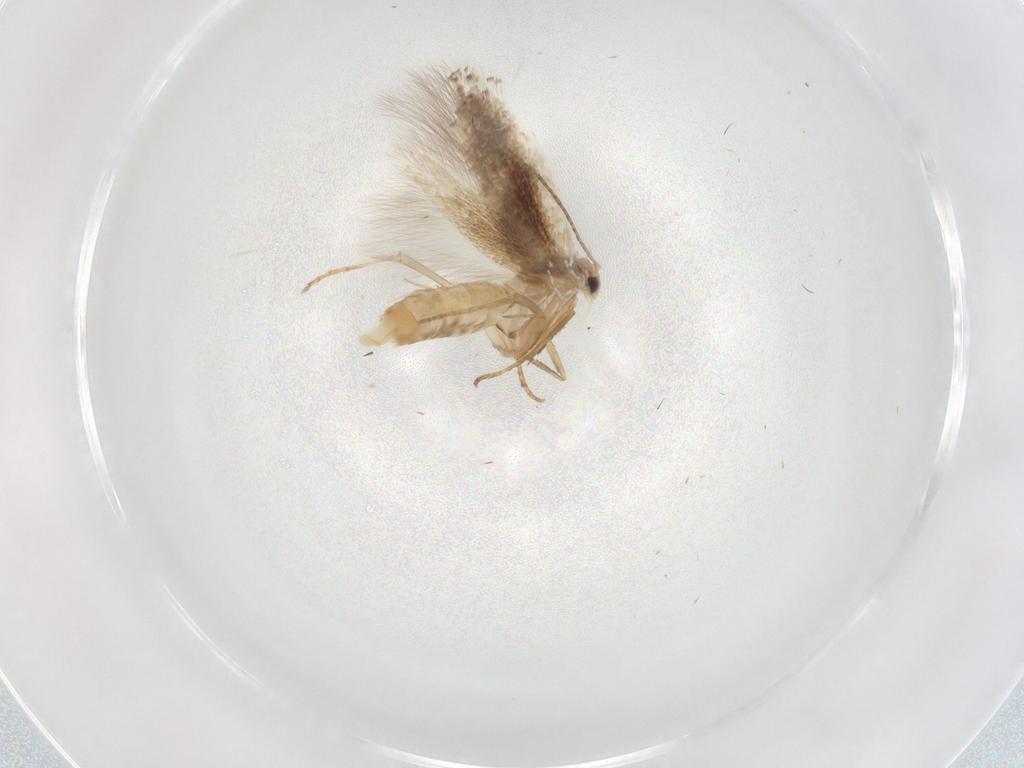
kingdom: Animalia
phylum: Arthropoda
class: Insecta
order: Lepidoptera
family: Bucculatricidae
